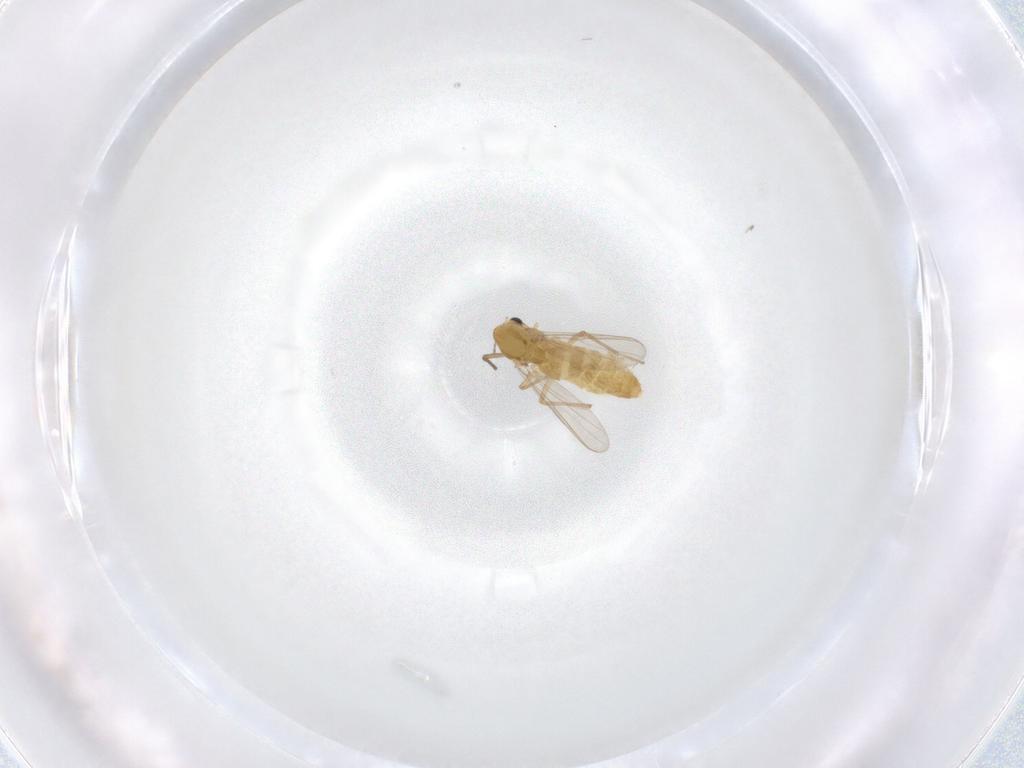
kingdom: Animalia
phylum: Arthropoda
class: Insecta
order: Diptera
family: Chironomidae
